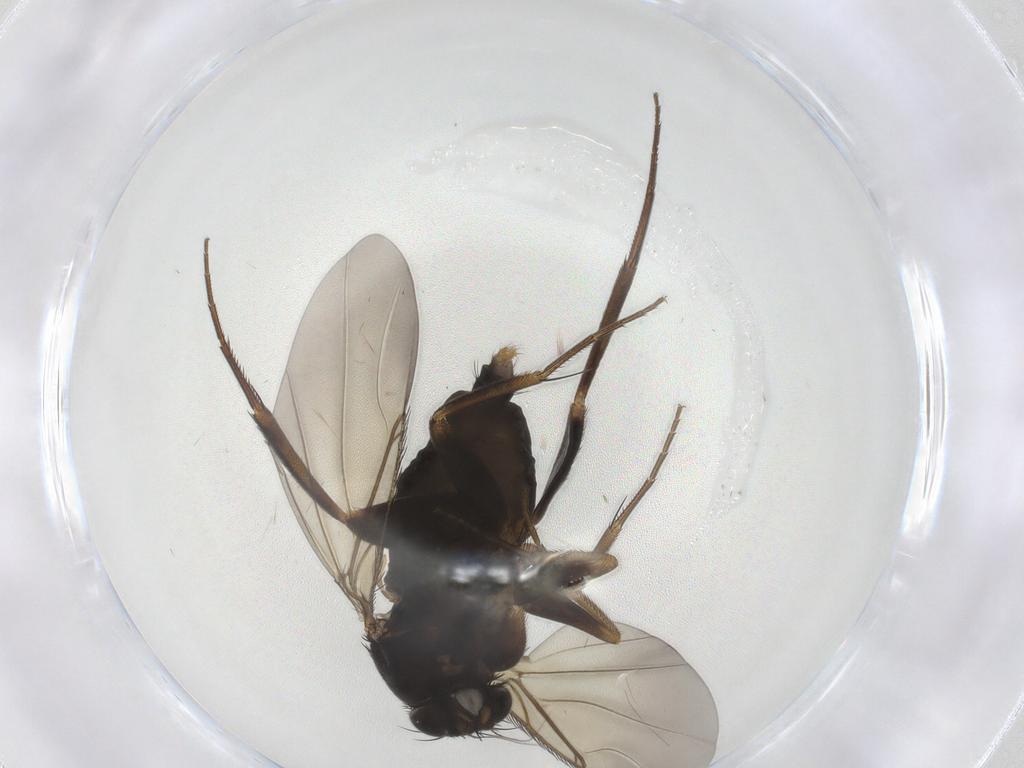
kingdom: Animalia
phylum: Arthropoda
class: Insecta
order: Diptera
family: Phoridae
